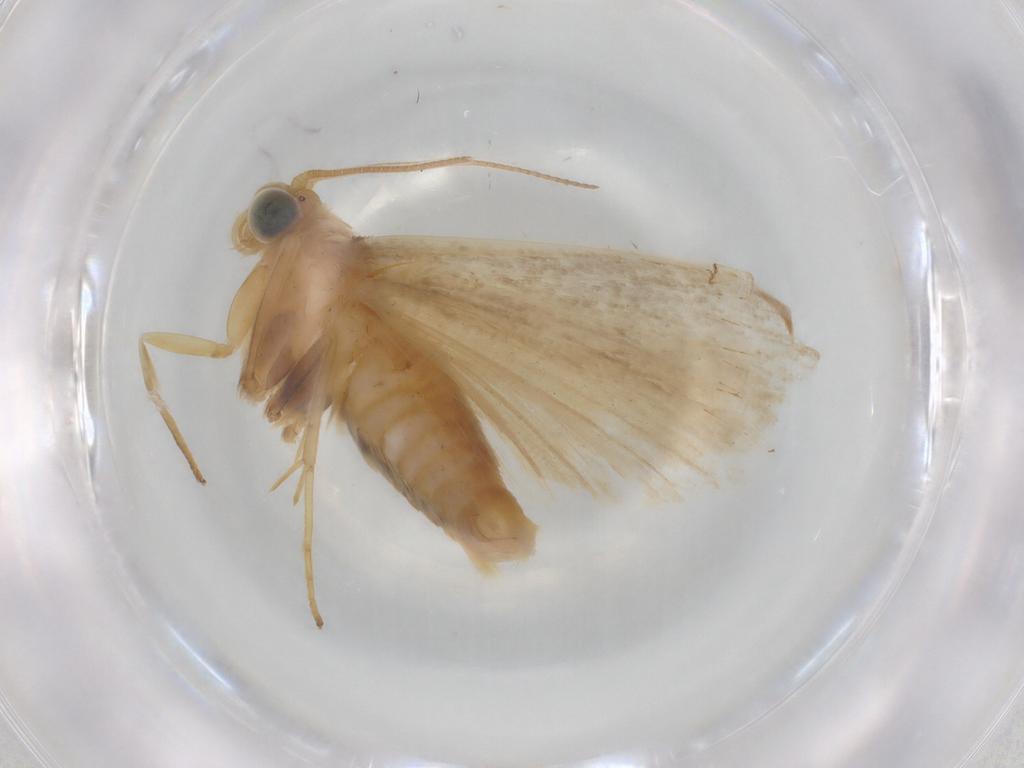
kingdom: Animalia
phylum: Arthropoda
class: Insecta
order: Lepidoptera
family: Pyralidae
